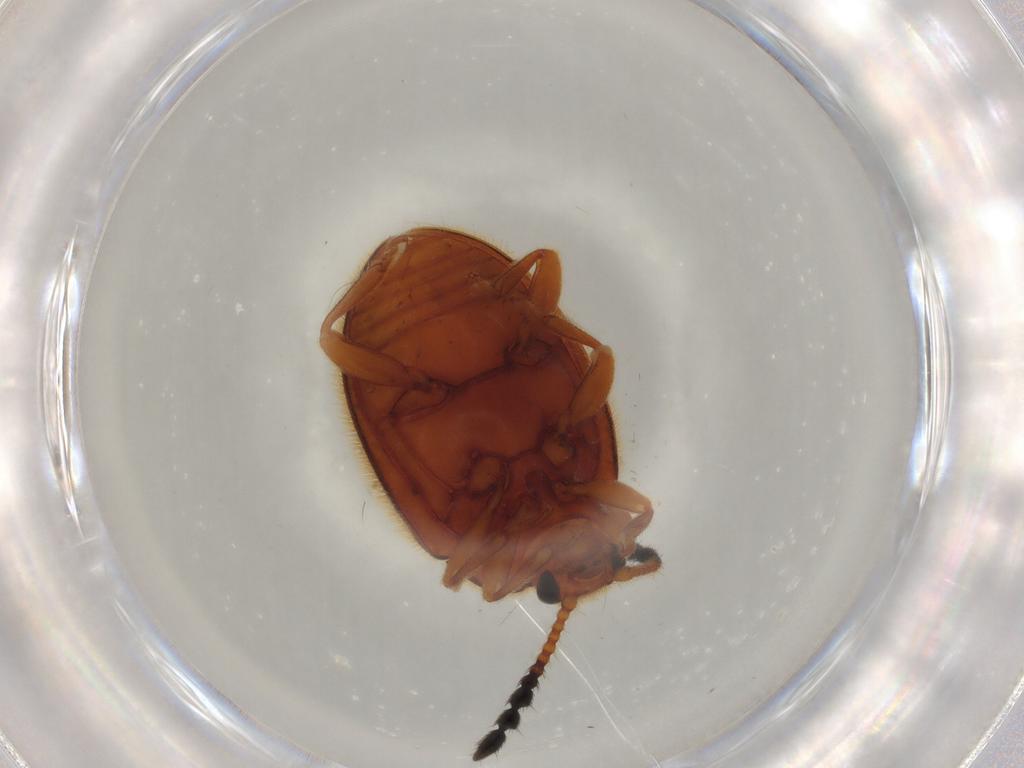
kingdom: Animalia
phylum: Arthropoda
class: Insecta
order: Coleoptera
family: Endomychidae
